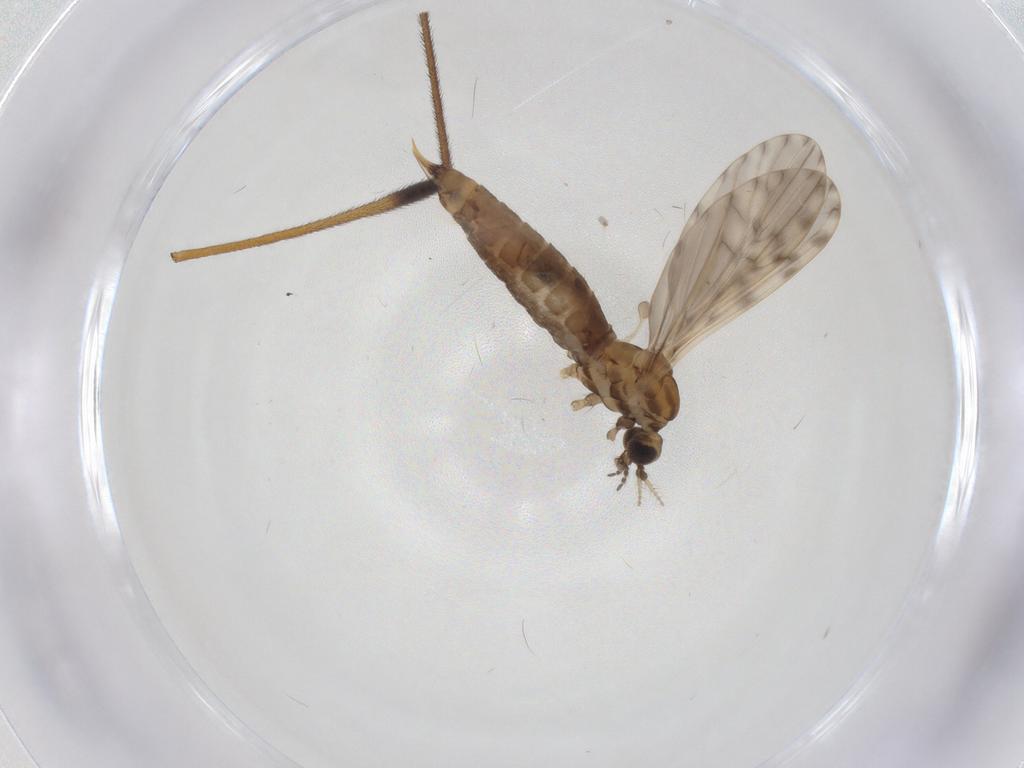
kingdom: Animalia
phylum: Arthropoda
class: Insecta
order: Diptera
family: Limoniidae
